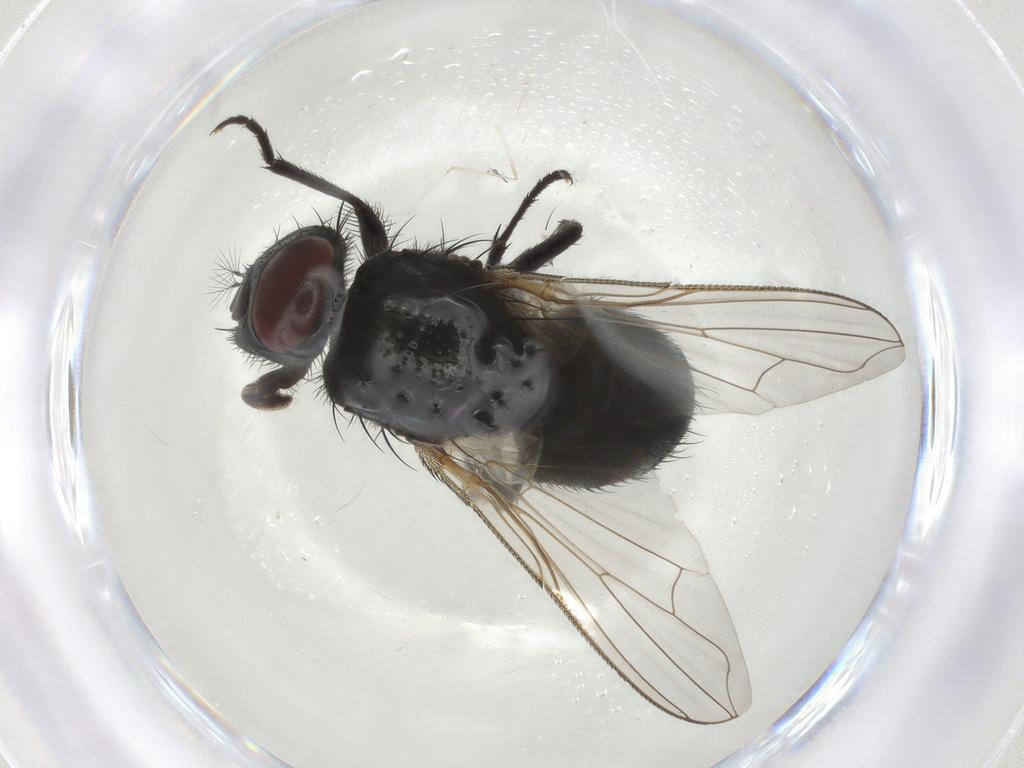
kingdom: Animalia
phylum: Arthropoda
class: Insecta
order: Diptera
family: Muscidae
